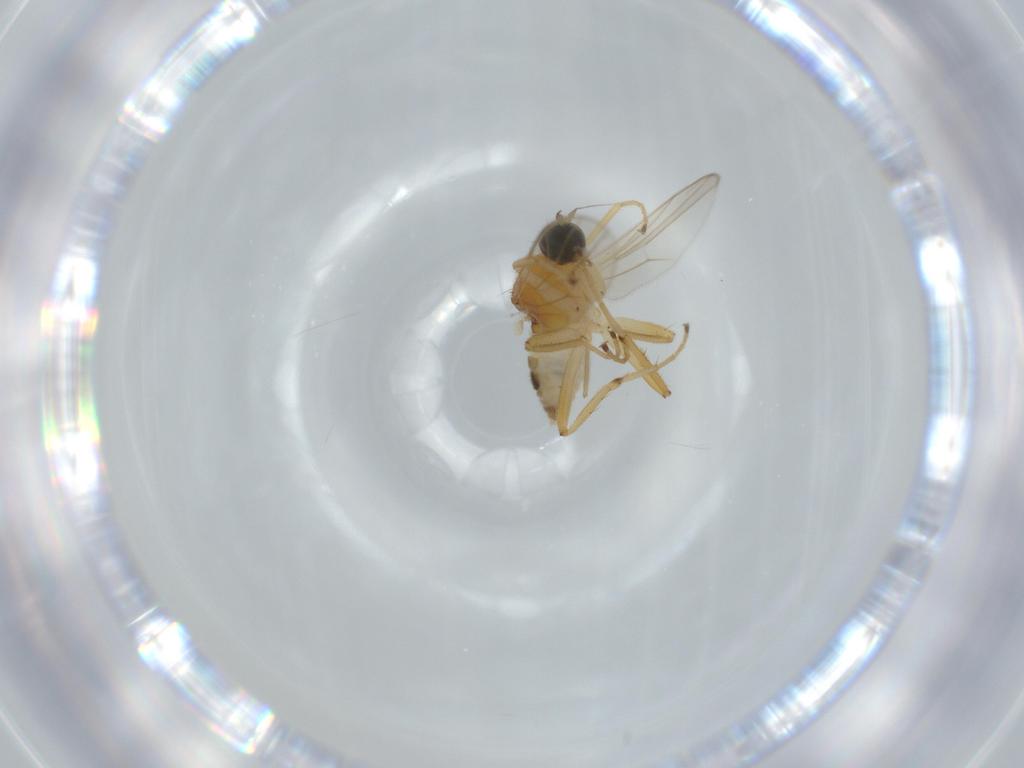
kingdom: Animalia
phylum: Arthropoda
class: Insecta
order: Diptera
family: Hybotidae
